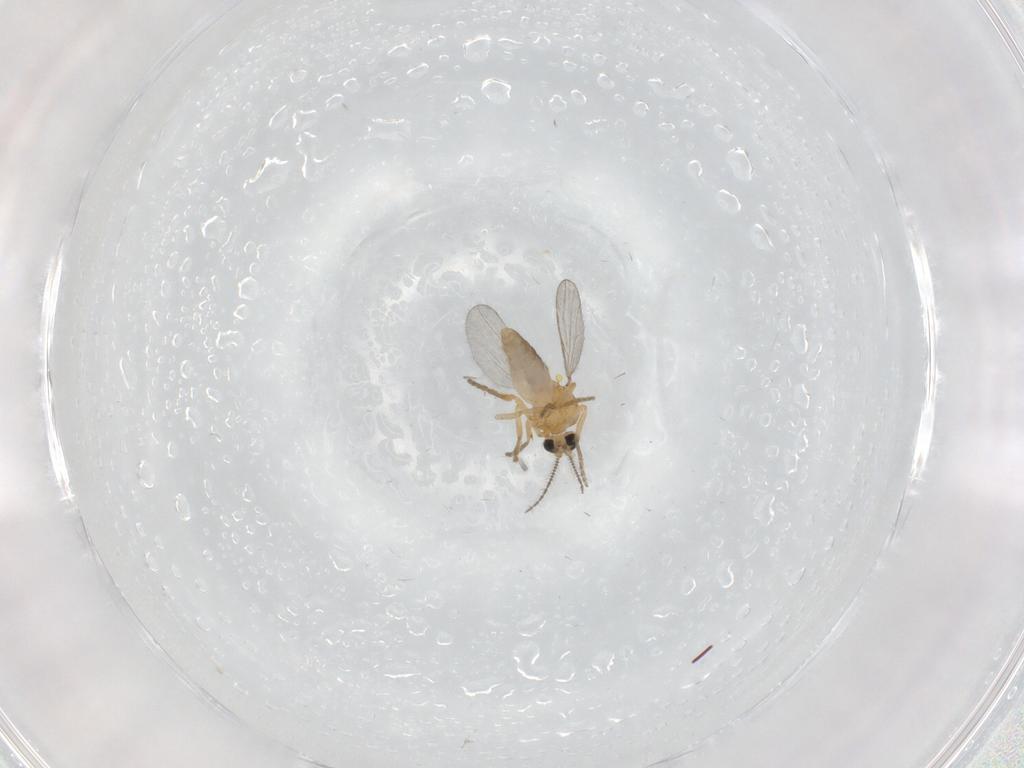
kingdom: Animalia
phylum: Arthropoda
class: Insecta
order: Diptera
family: Ceratopogonidae
